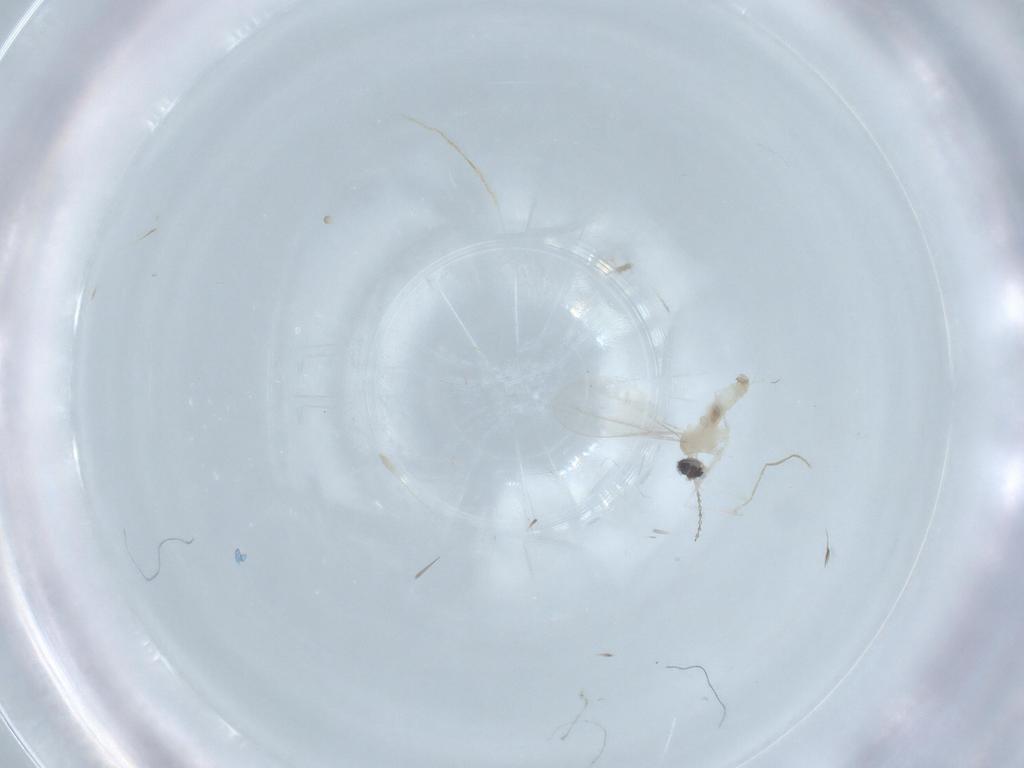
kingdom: Animalia
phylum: Arthropoda
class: Insecta
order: Diptera
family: Cecidomyiidae
